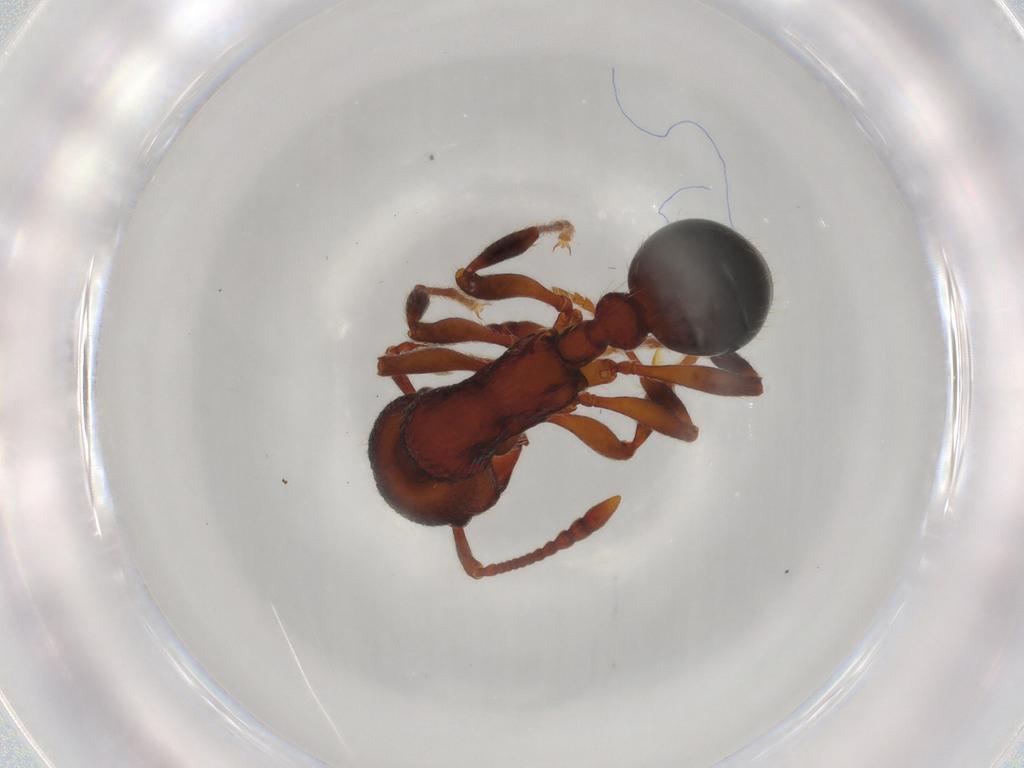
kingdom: Animalia
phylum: Arthropoda
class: Insecta
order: Hymenoptera
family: Formicidae
